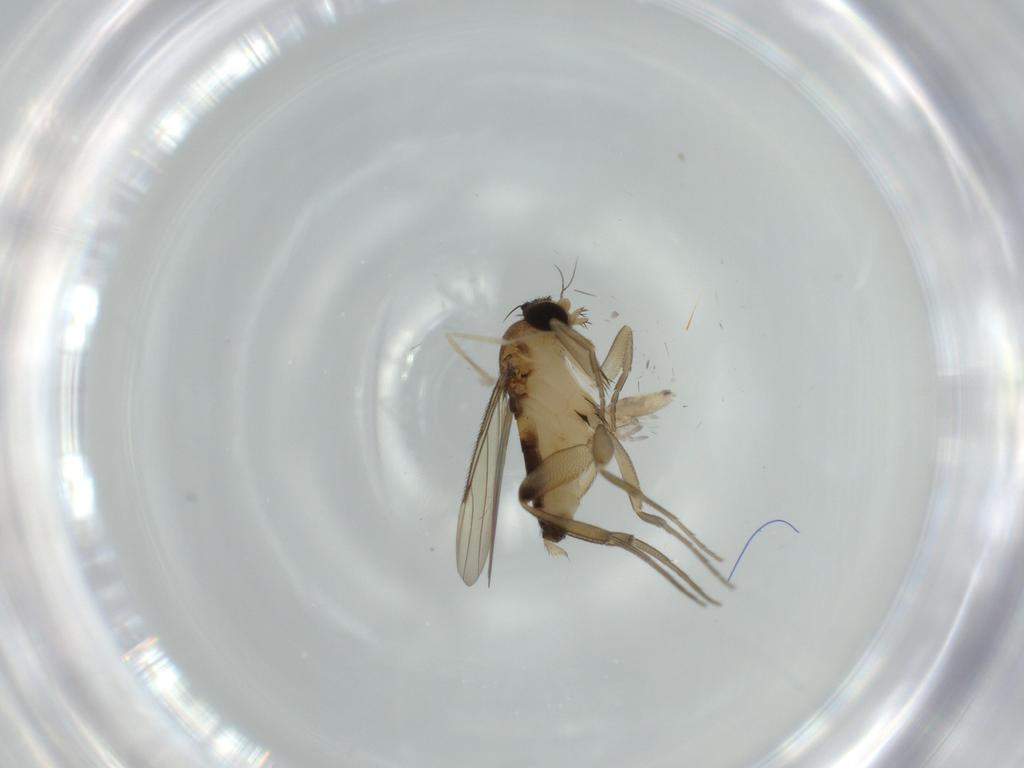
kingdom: Animalia
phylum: Arthropoda
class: Insecta
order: Diptera
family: Phoridae
